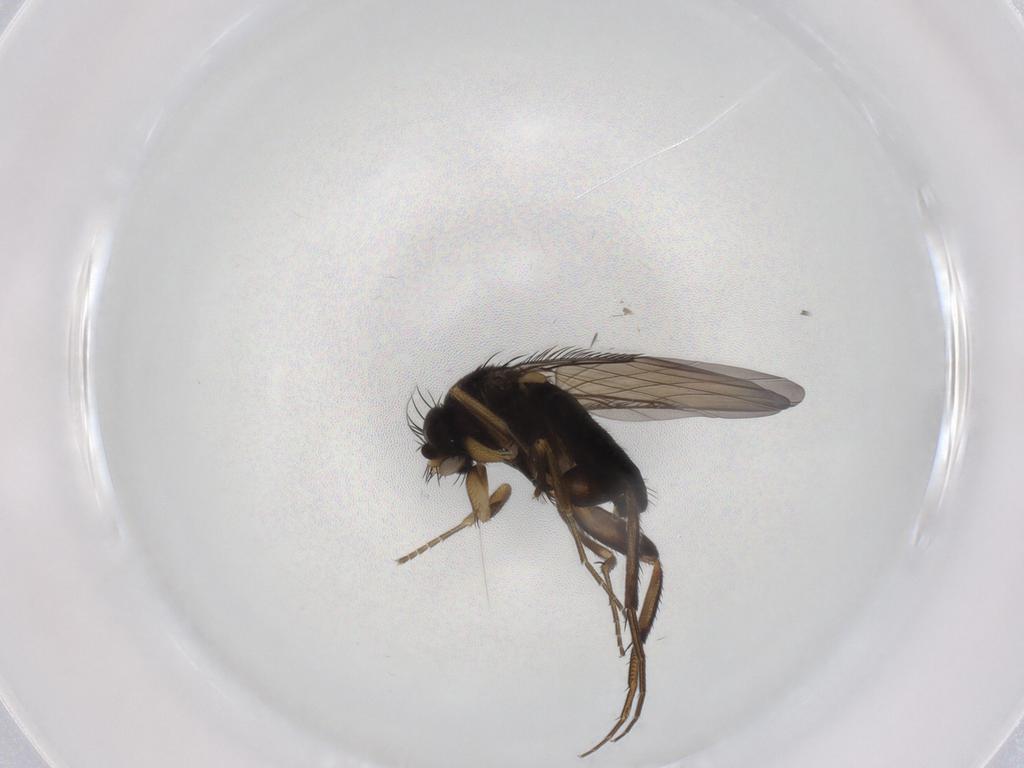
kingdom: Animalia
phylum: Arthropoda
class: Insecta
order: Diptera
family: Phoridae
